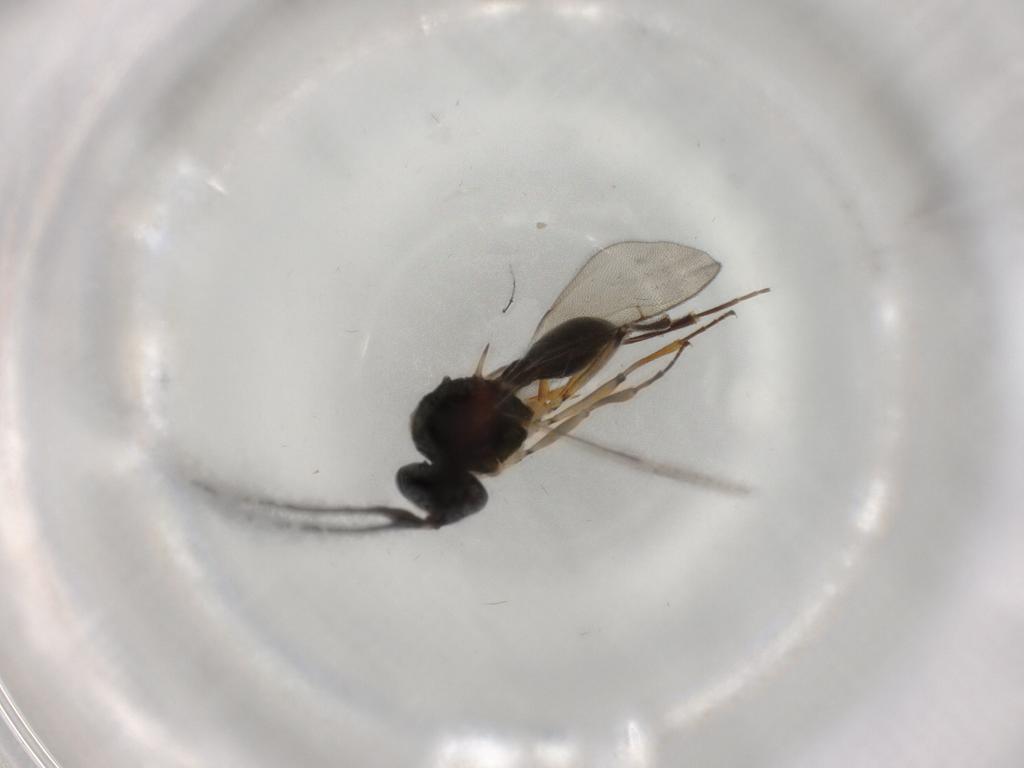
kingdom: Animalia
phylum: Arthropoda
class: Insecta
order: Hymenoptera
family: Scelionidae
